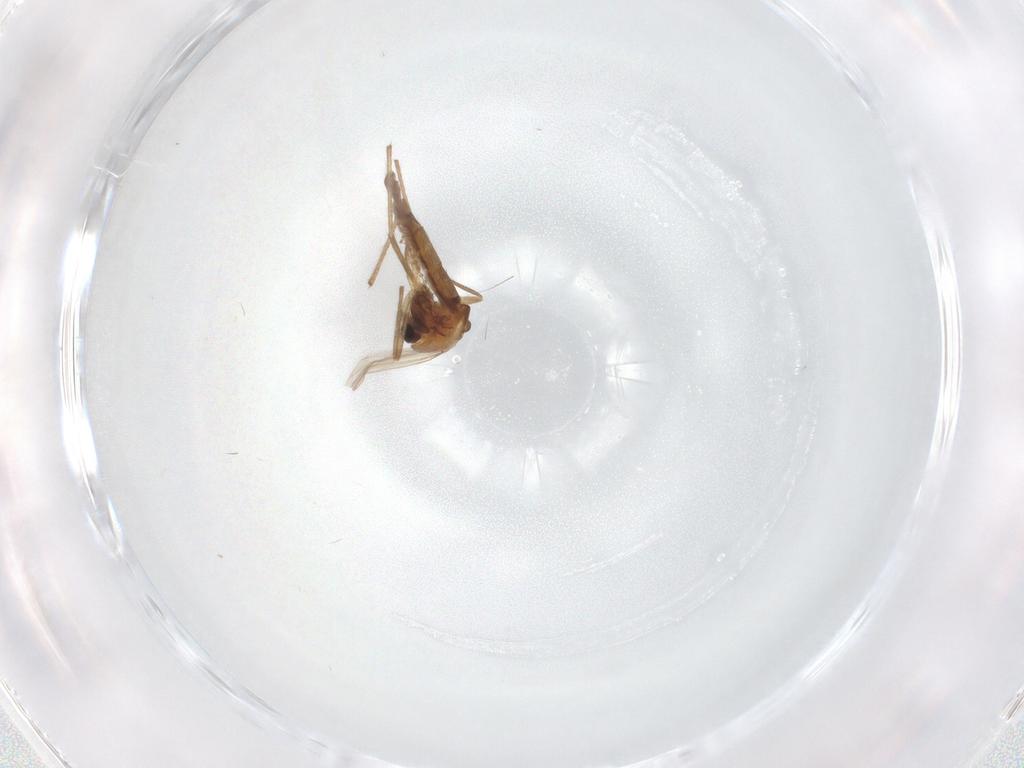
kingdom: Animalia
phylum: Arthropoda
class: Insecta
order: Diptera
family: Chironomidae
